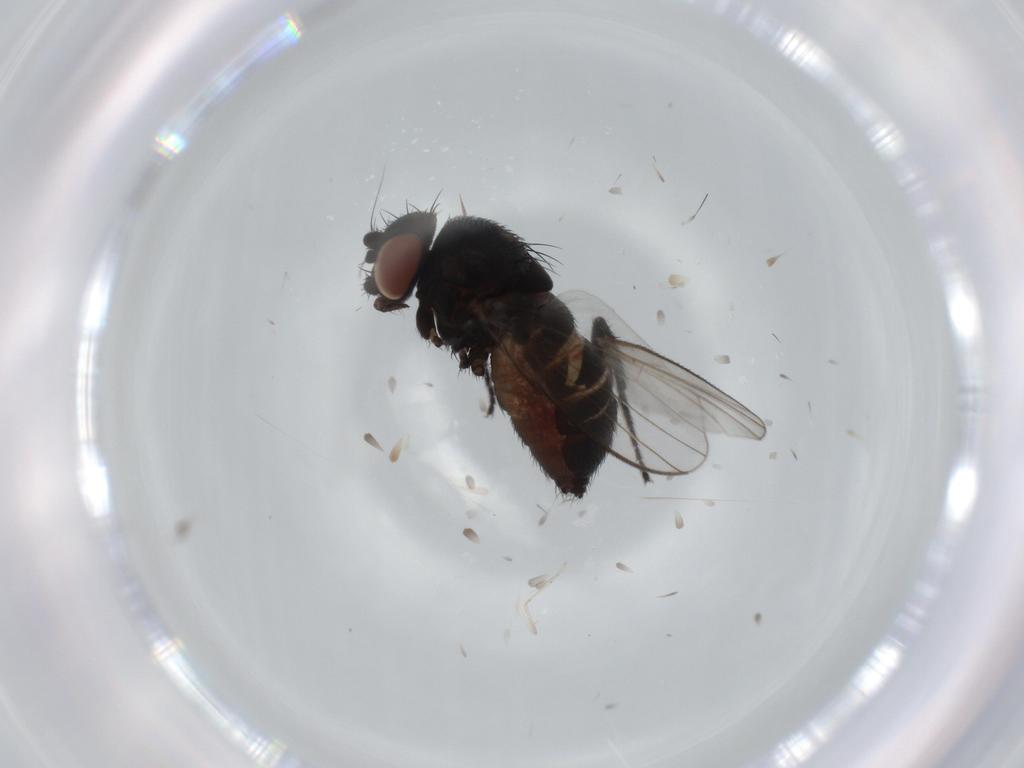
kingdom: Animalia
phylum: Arthropoda
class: Insecta
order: Diptera
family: Milichiidae
